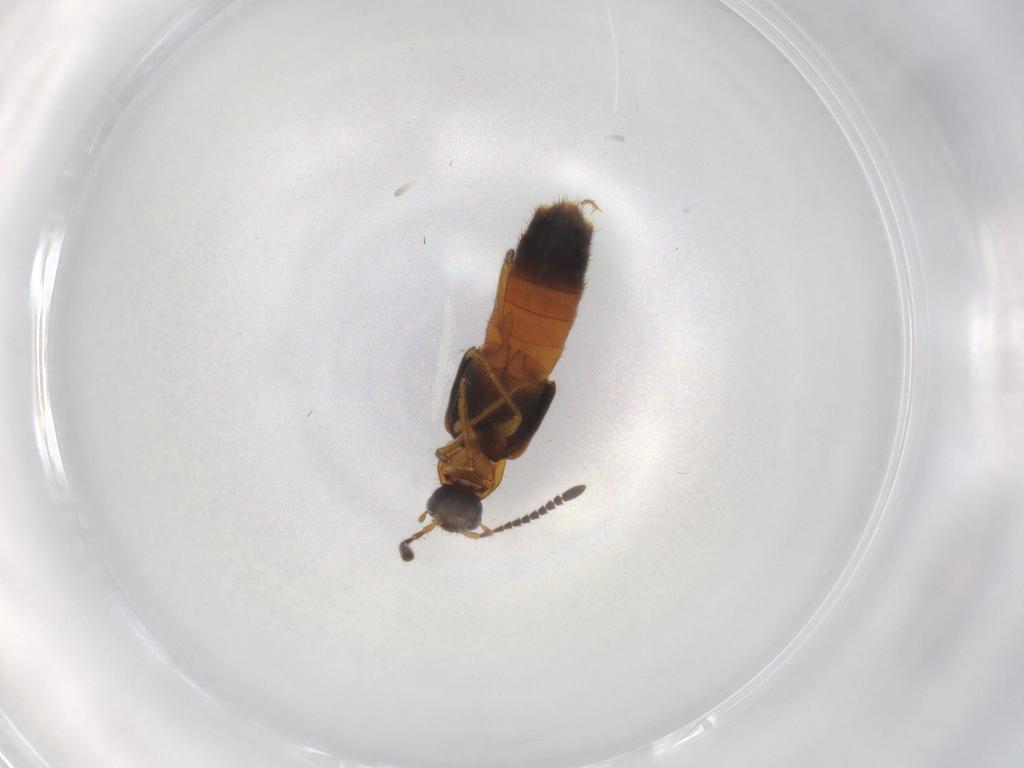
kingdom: Animalia
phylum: Arthropoda
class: Insecta
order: Coleoptera
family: Staphylinidae
